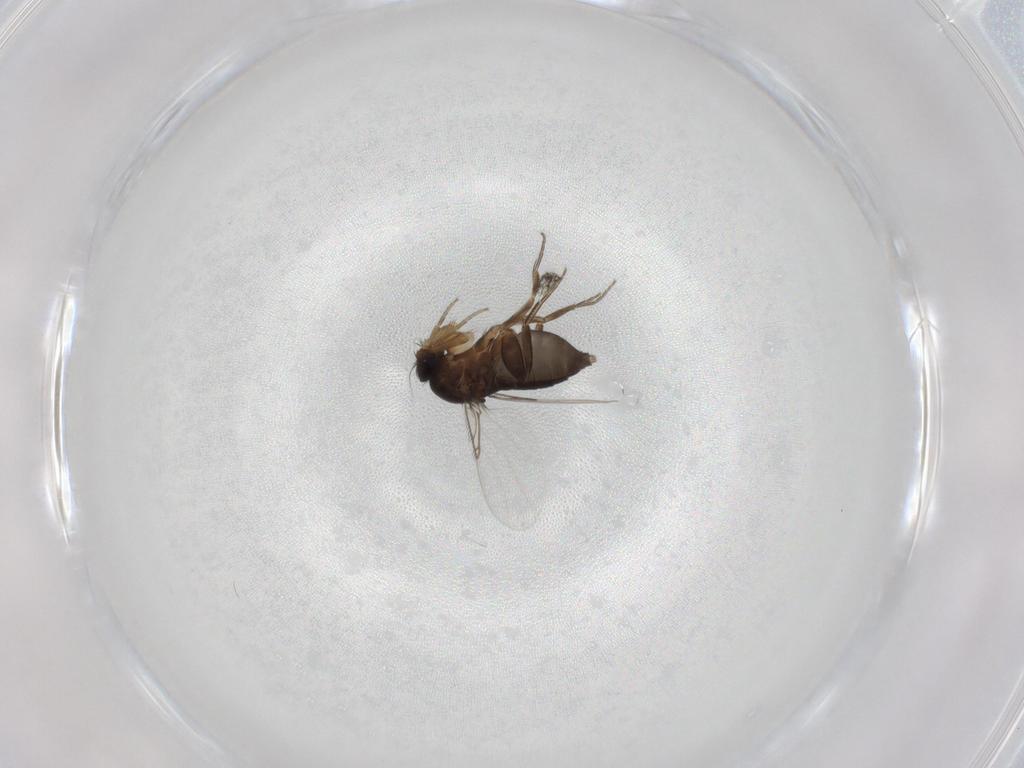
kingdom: Animalia
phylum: Arthropoda
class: Insecta
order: Diptera
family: Phoridae
